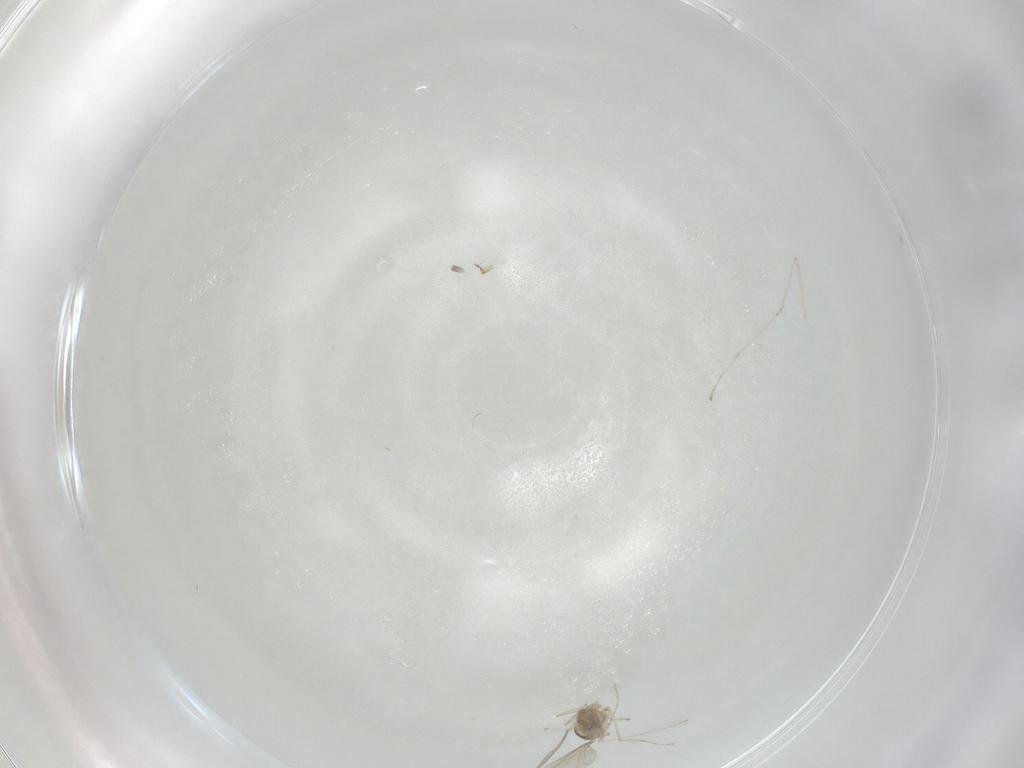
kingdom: Animalia
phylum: Arthropoda
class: Insecta
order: Diptera
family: Cecidomyiidae
